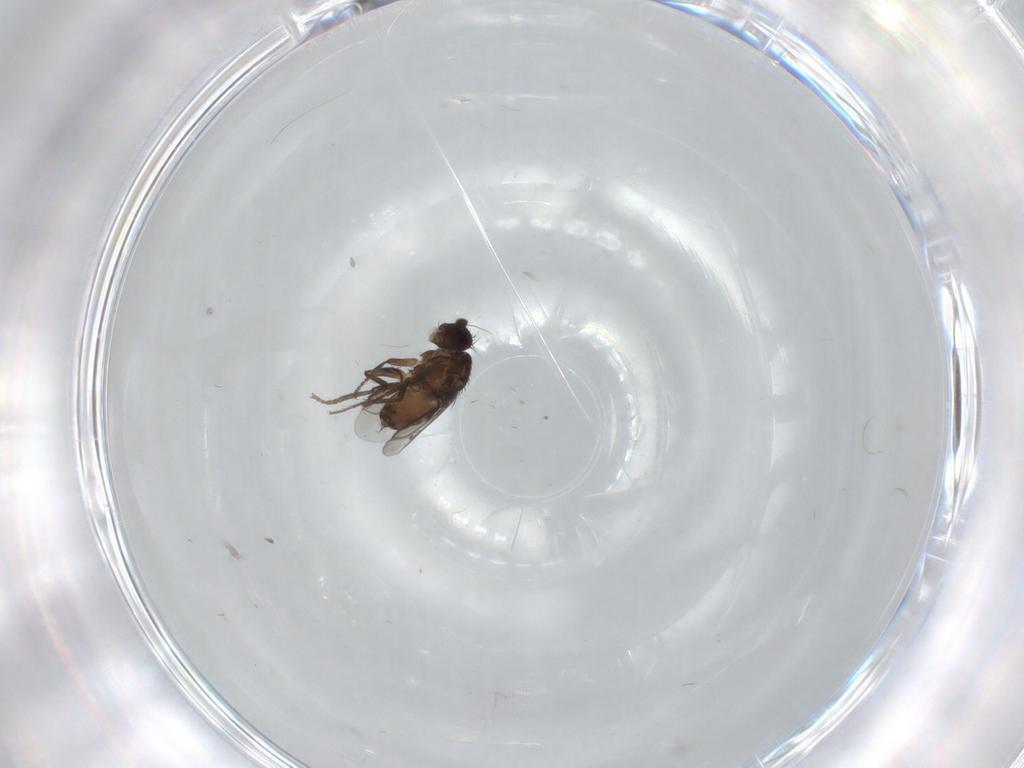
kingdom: Animalia
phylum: Arthropoda
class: Insecta
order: Diptera
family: Sphaeroceridae
